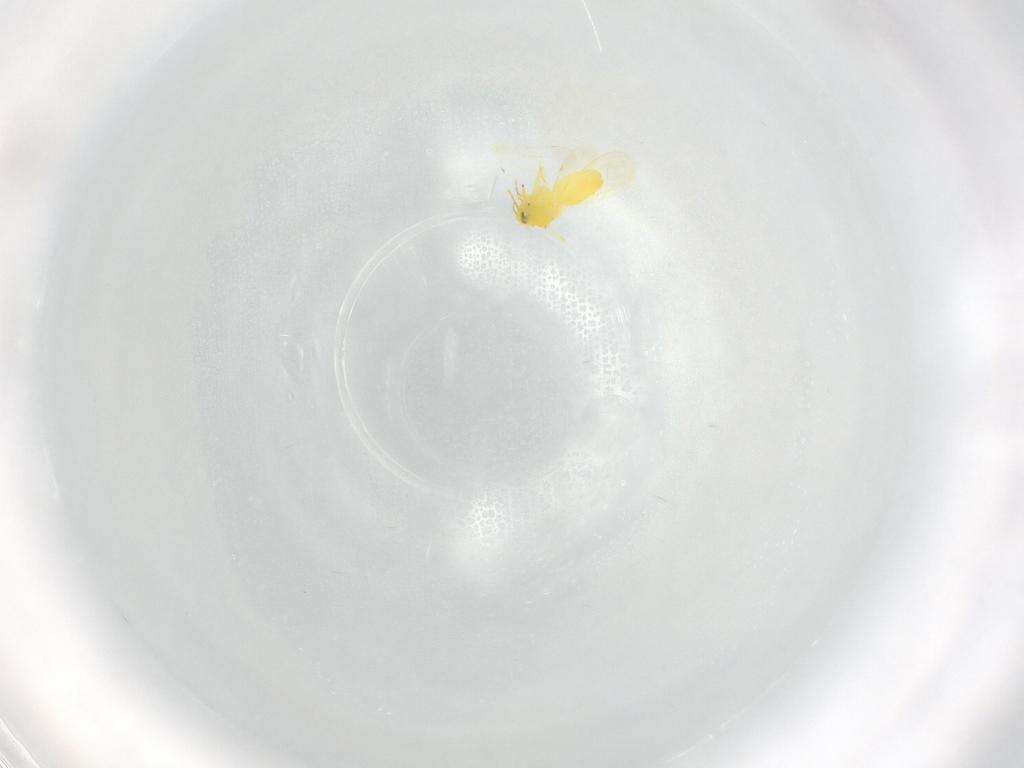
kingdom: Animalia
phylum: Arthropoda
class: Insecta
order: Hemiptera
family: Aleyrodidae
